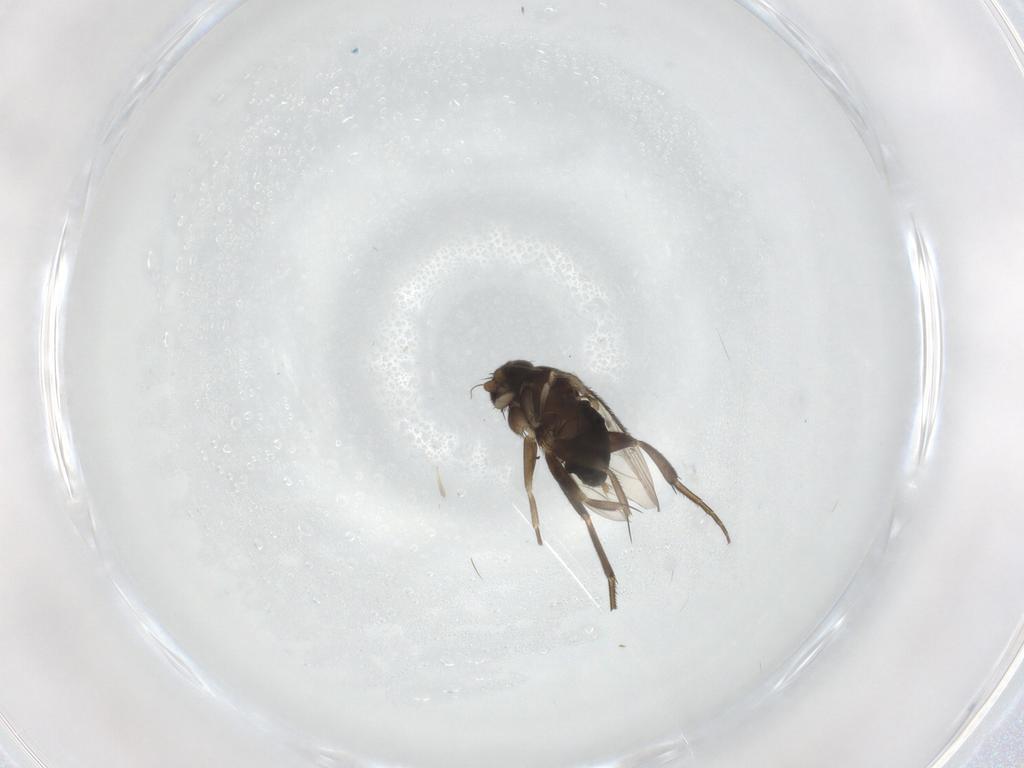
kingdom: Animalia
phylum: Arthropoda
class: Insecta
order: Diptera
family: Phoridae
